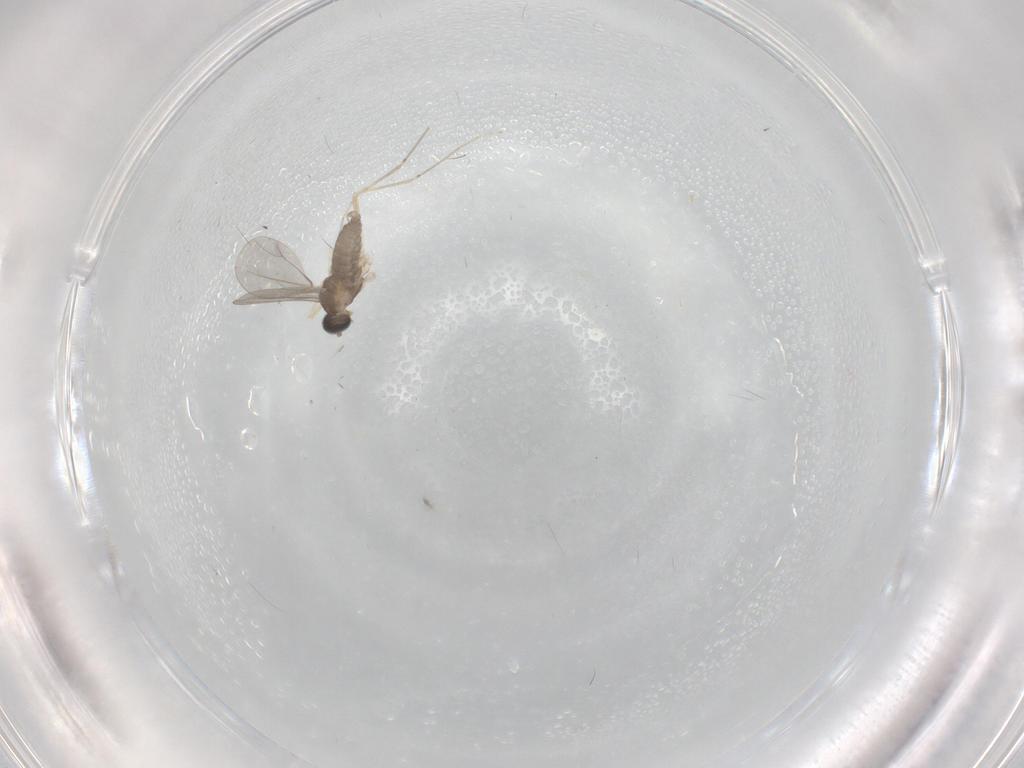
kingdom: Animalia
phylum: Arthropoda
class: Insecta
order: Diptera
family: Cecidomyiidae
